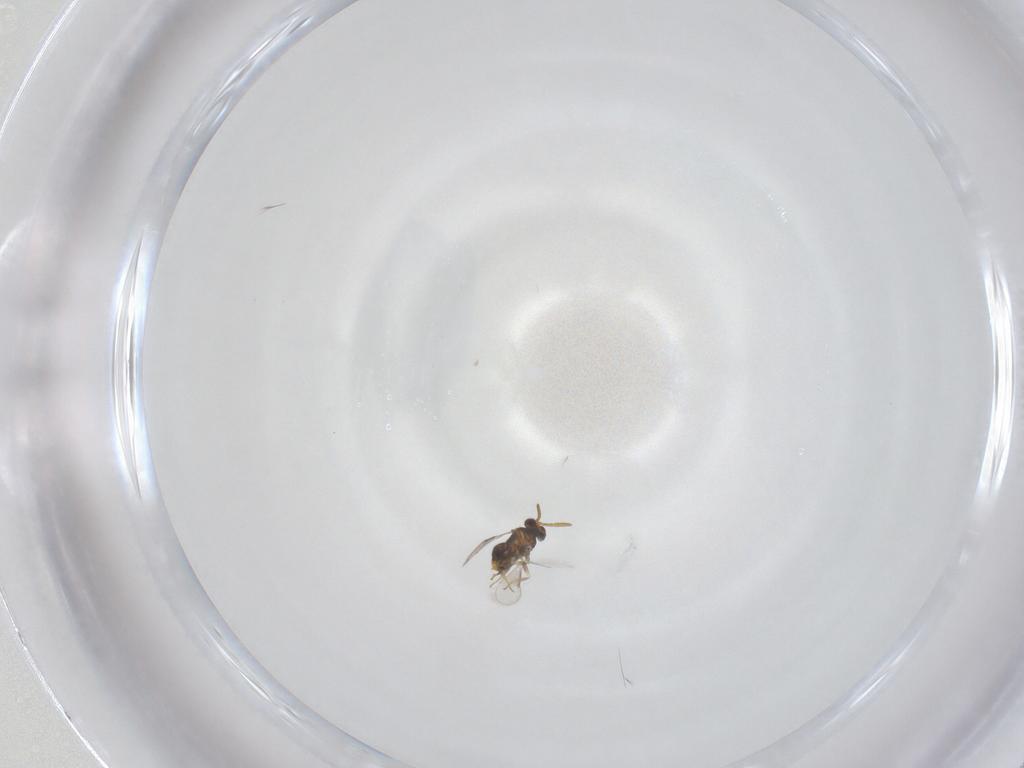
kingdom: Animalia
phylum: Arthropoda
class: Insecta
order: Hymenoptera
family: Aphelinidae
